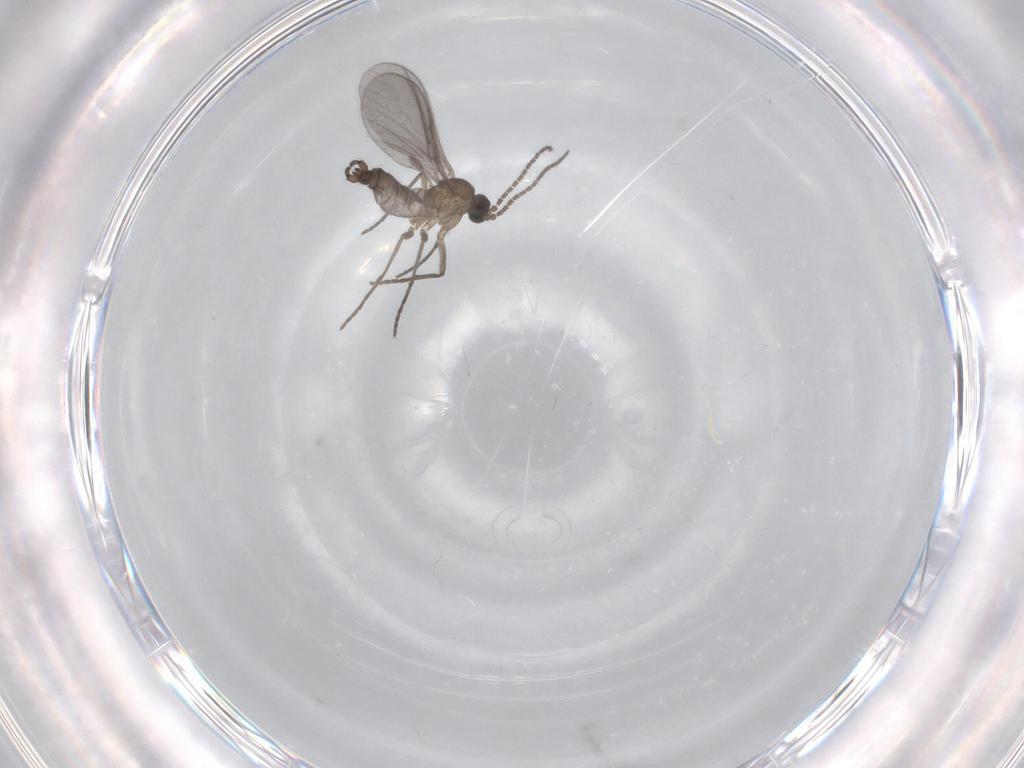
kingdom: Animalia
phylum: Arthropoda
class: Insecta
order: Diptera
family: Sciaridae
